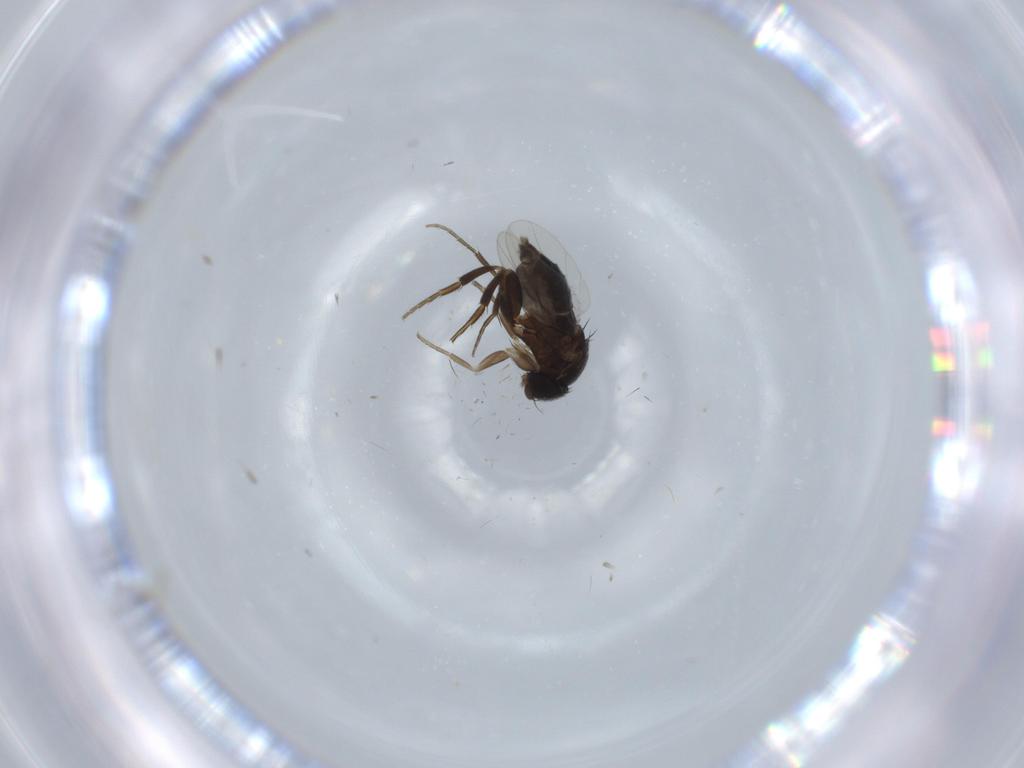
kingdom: Animalia
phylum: Arthropoda
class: Insecta
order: Diptera
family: Phoridae
